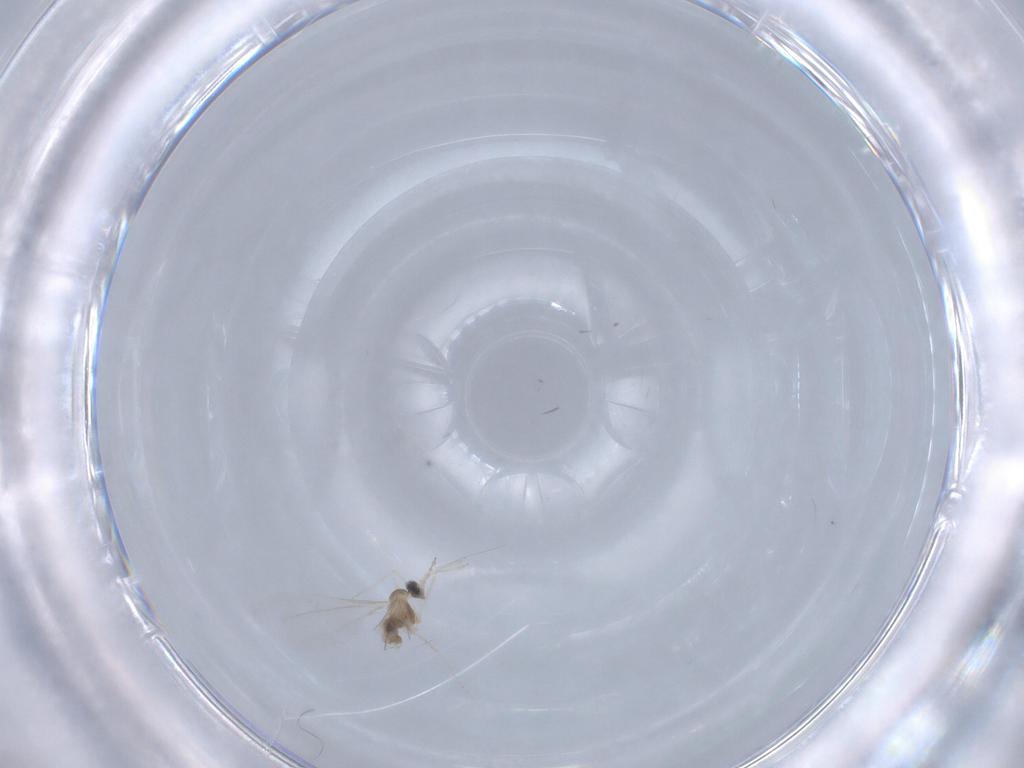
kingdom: Animalia
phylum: Arthropoda
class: Insecta
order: Diptera
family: Cecidomyiidae
